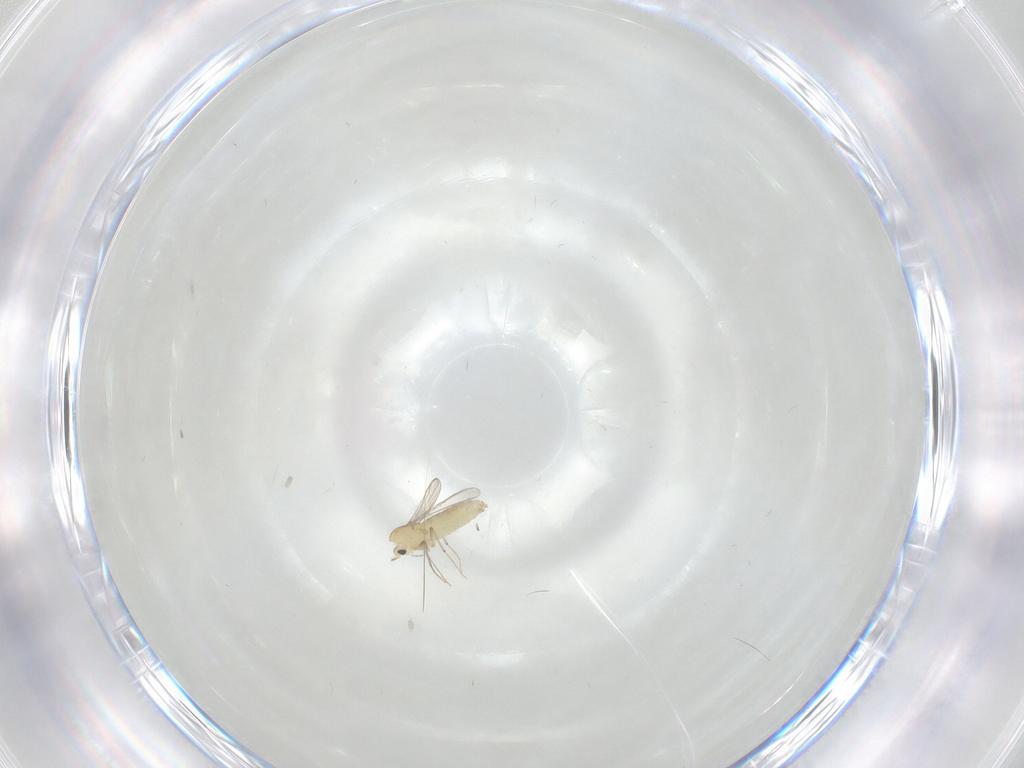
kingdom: Animalia
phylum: Arthropoda
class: Insecta
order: Diptera
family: Chironomidae
